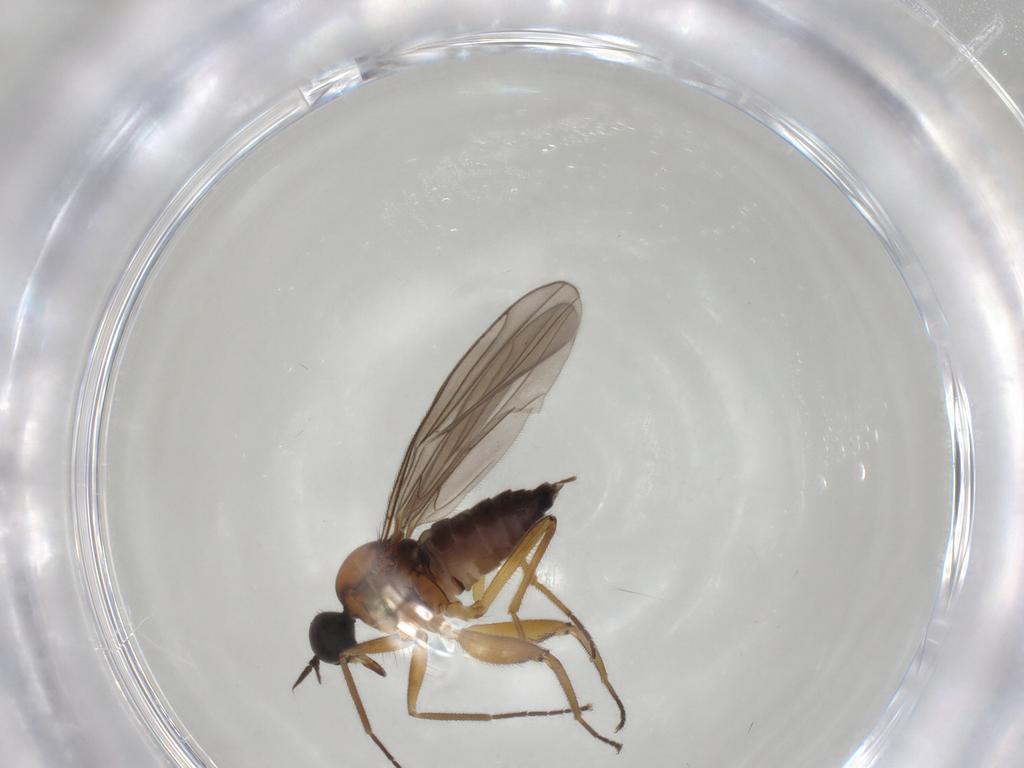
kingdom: Animalia
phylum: Arthropoda
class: Insecta
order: Diptera
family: Hybotidae
